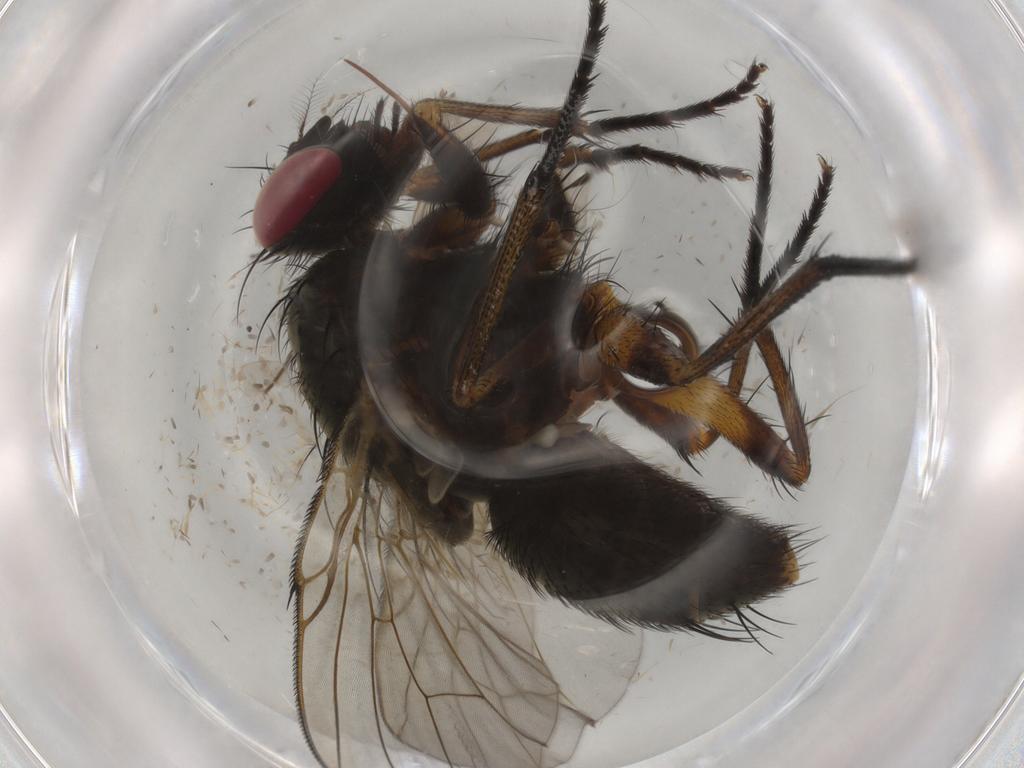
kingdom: Animalia
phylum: Arthropoda
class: Insecta
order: Diptera
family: Muscidae
